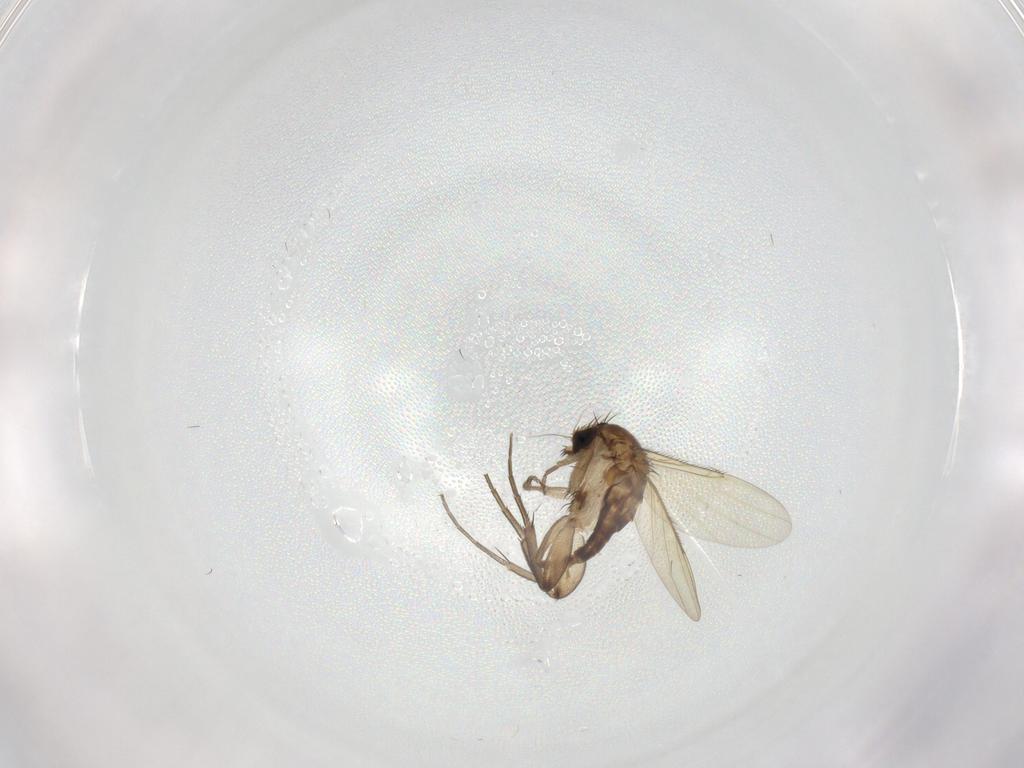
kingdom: Animalia
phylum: Arthropoda
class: Insecta
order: Diptera
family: Phoridae
